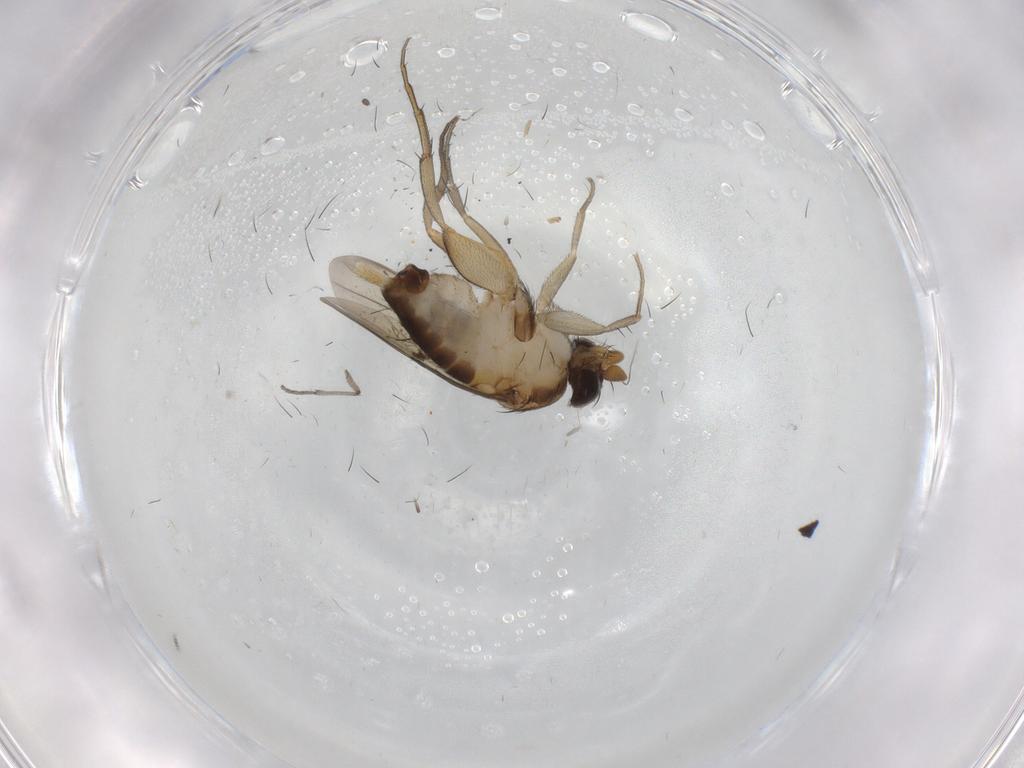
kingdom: Animalia
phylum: Arthropoda
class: Insecta
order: Diptera
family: Phoridae
